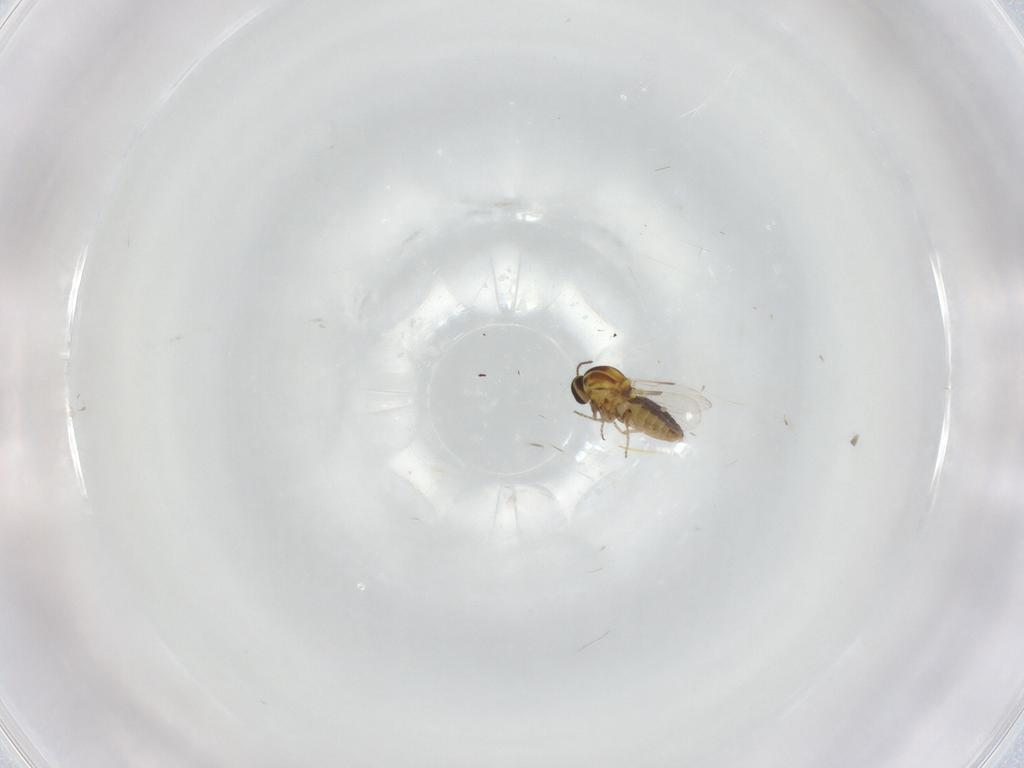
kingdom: Animalia
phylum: Arthropoda
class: Insecta
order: Diptera
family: Ceratopogonidae
